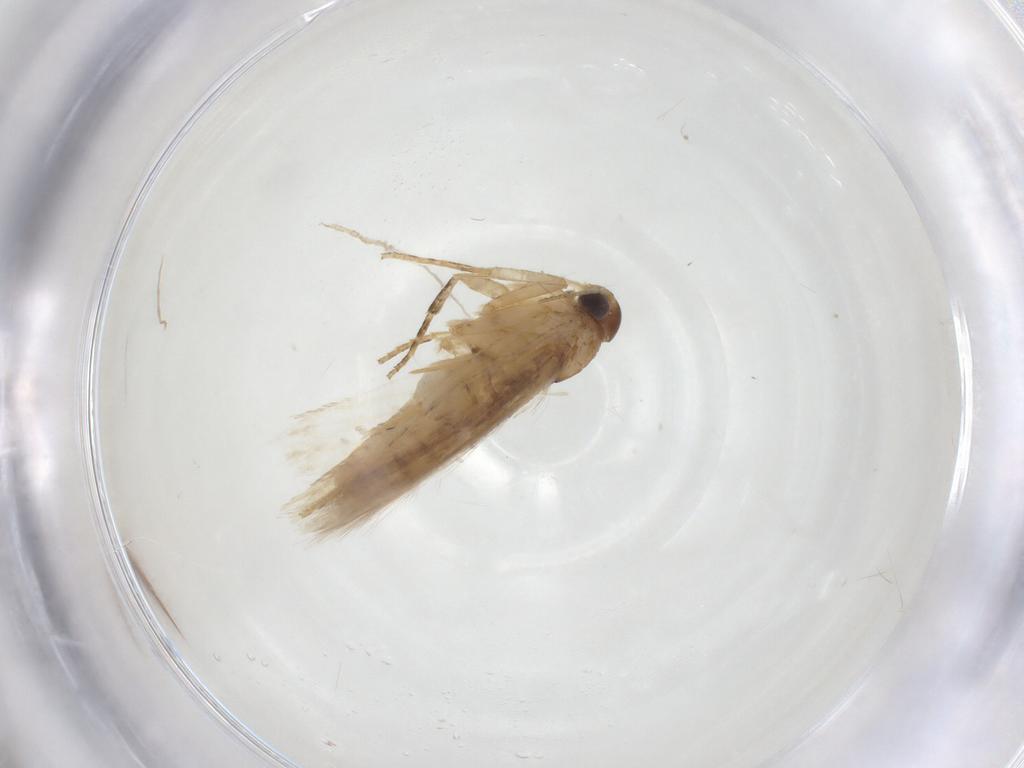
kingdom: Animalia
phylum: Arthropoda
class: Insecta
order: Lepidoptera
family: Gelechiidae
